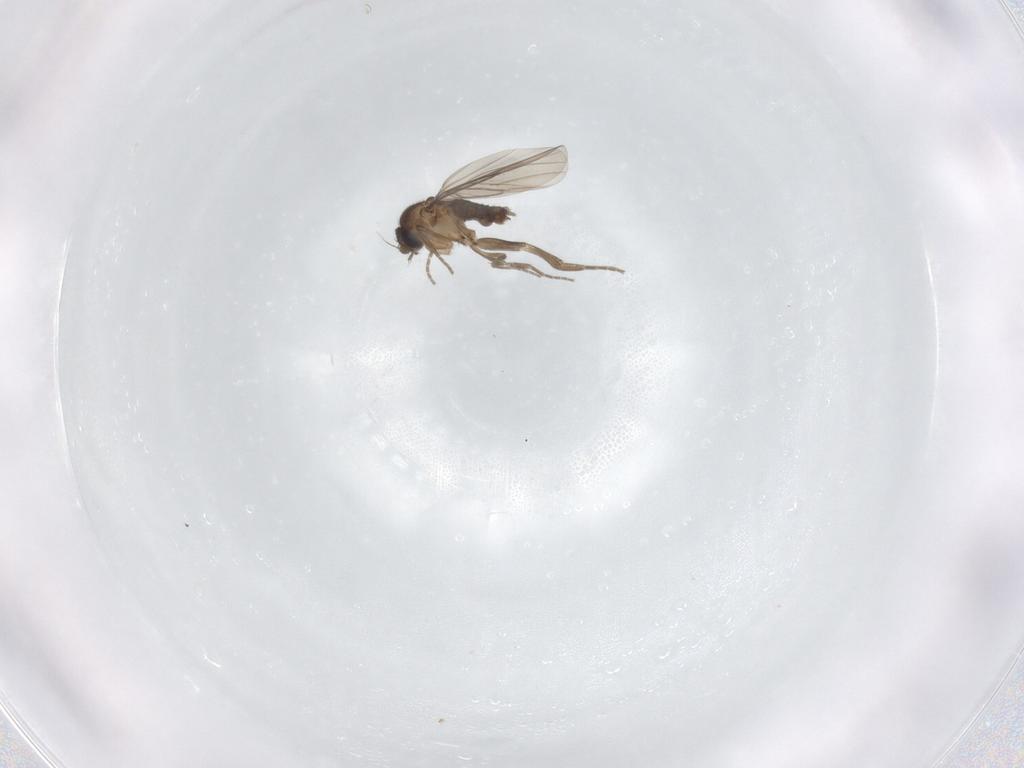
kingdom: Animalia
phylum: Arthropoda
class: Insecta
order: Diptera
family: Phoridae
